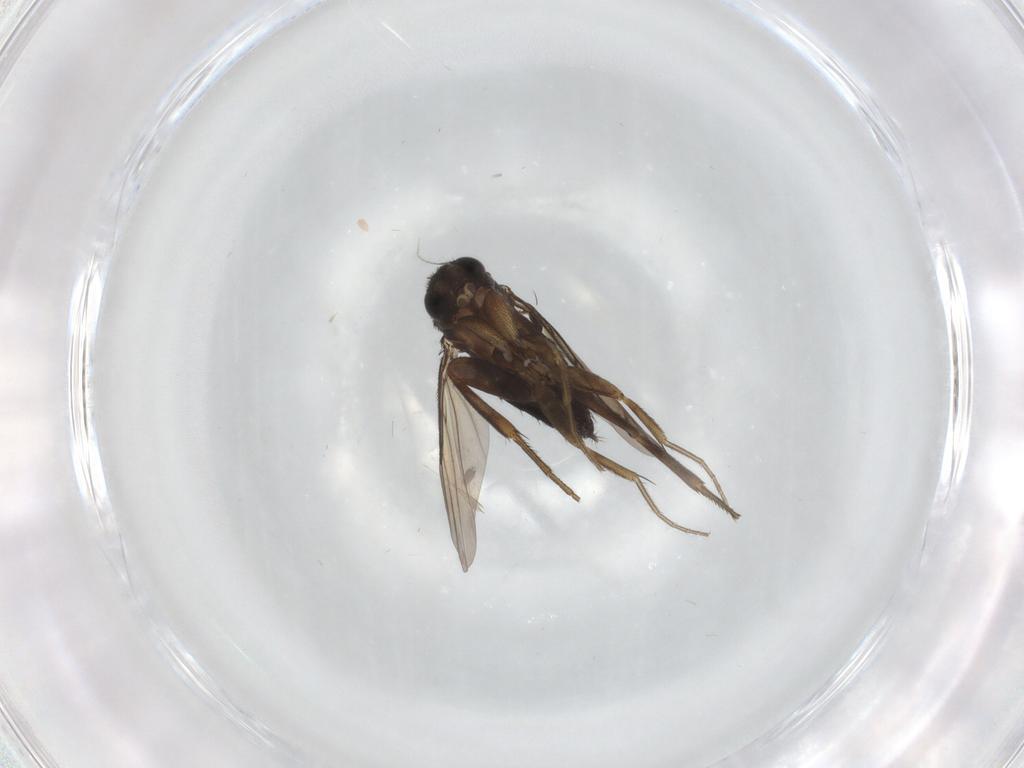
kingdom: Animalia
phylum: Arthropoda
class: Insecta
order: Diptera
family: Phoridae
